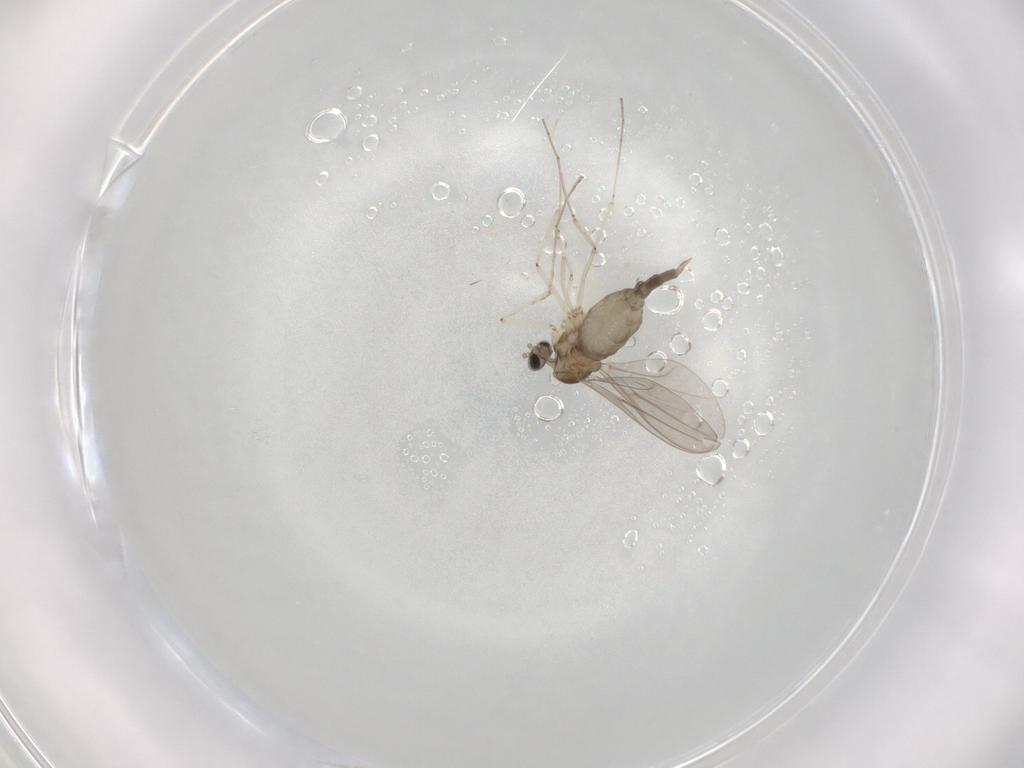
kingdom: Animalia
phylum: Arthropoda
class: Insecta
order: Diptera
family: Cecidomyiidae
